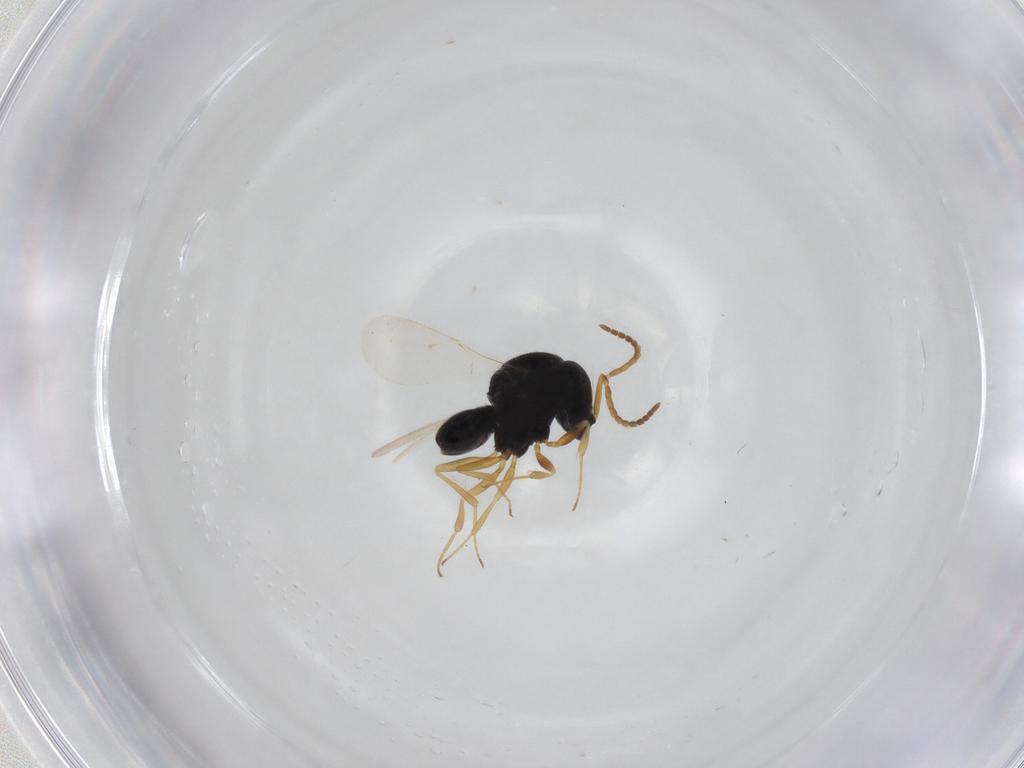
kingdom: Animalia
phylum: Arthropoda
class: Insecta
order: Hymenoptera
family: Scelionidae
